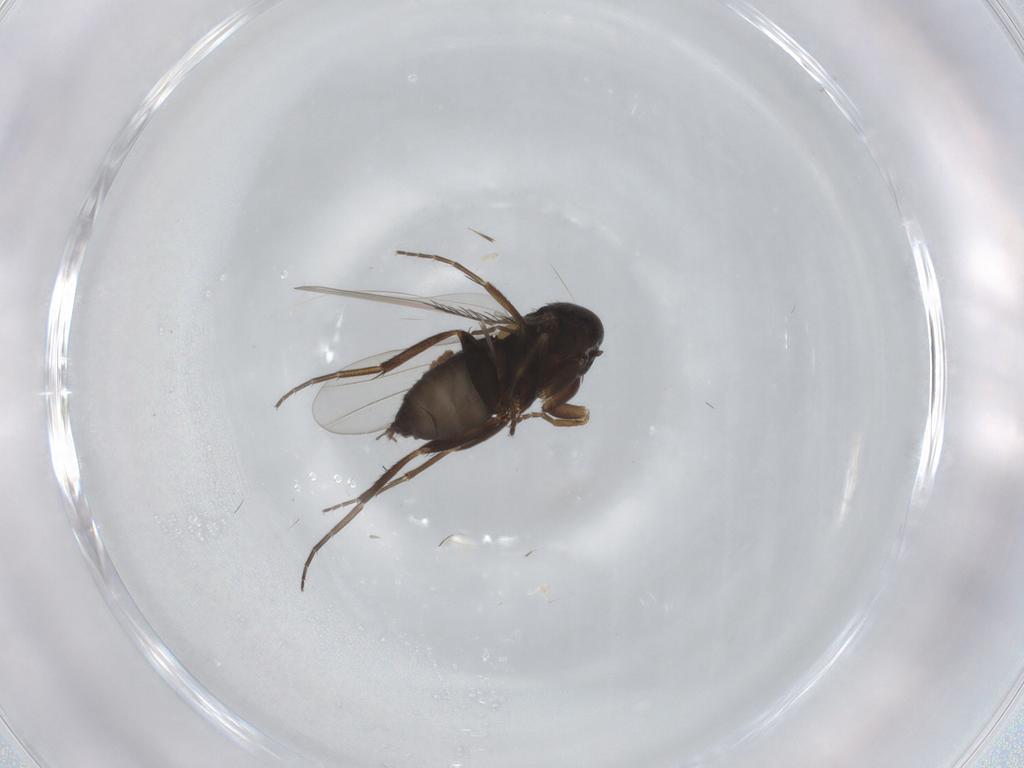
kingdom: Animalia
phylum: Arthropoda
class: Insecta
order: Diptera
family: Phoridae
